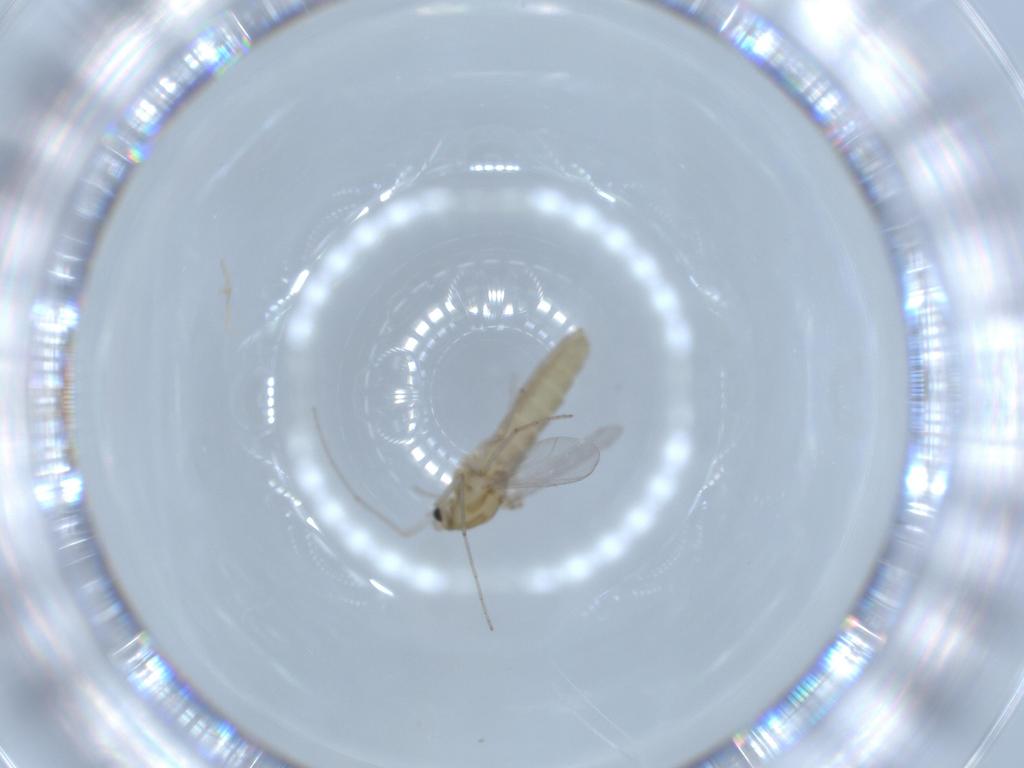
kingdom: Animalia
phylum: Arthropoda
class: Insecta
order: Diptera
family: Chironomidae
